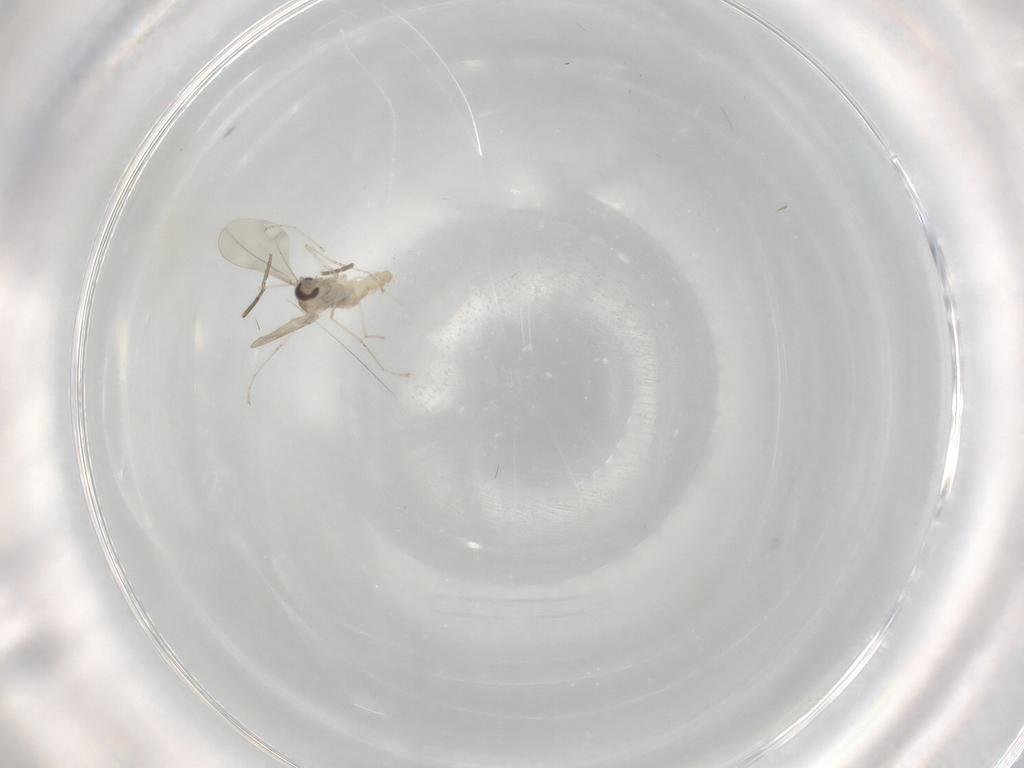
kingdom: Animalia
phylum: Arthropoda
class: Insecta
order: Diptera
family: Cecidomyiidae
